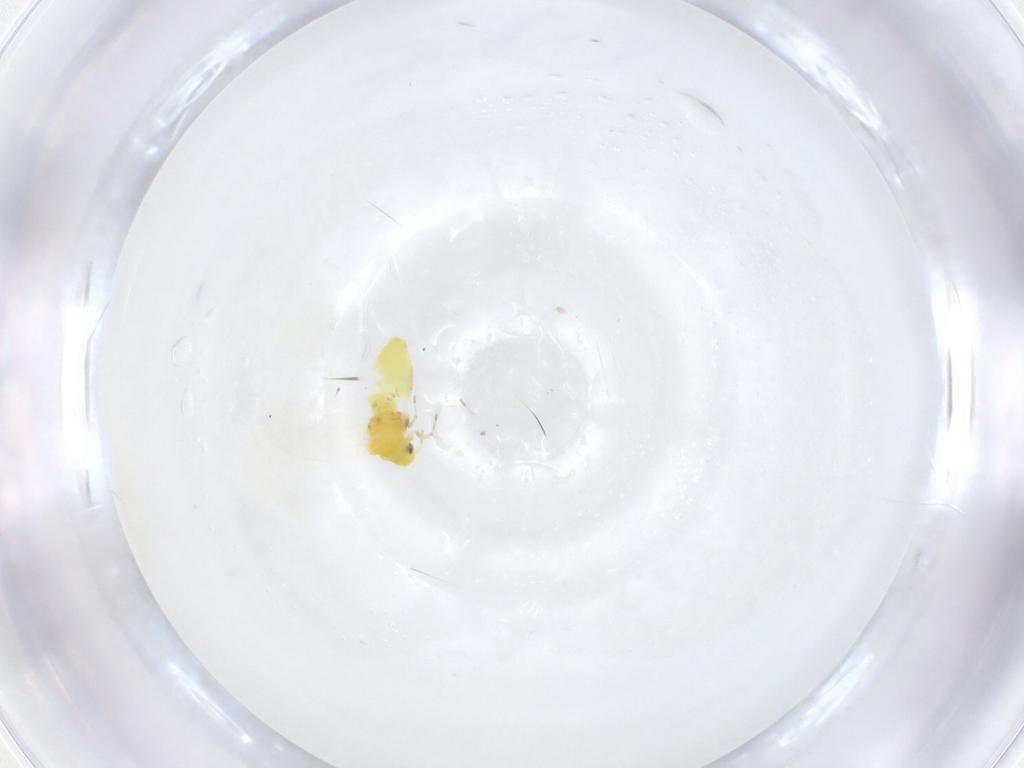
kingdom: Animalia
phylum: Arthropoda
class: Insecta
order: Hemiptera
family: Aleyrodidae
